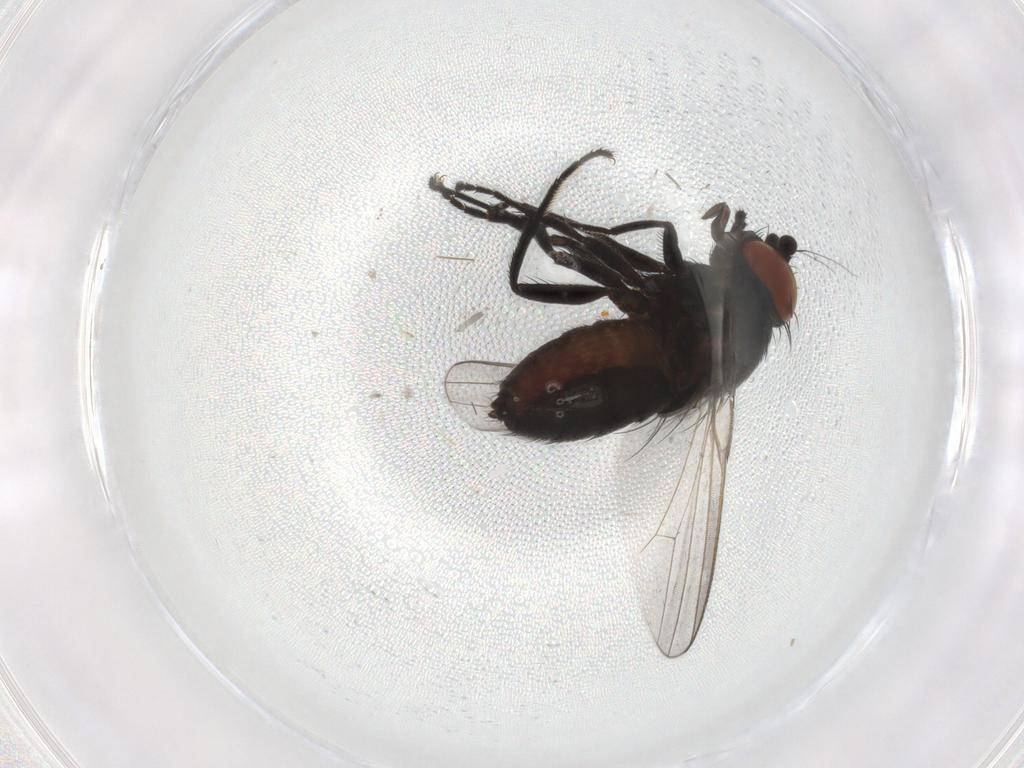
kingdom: Animalia
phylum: Arthropoda
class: Insecta
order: Diptera
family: Milichiidae
